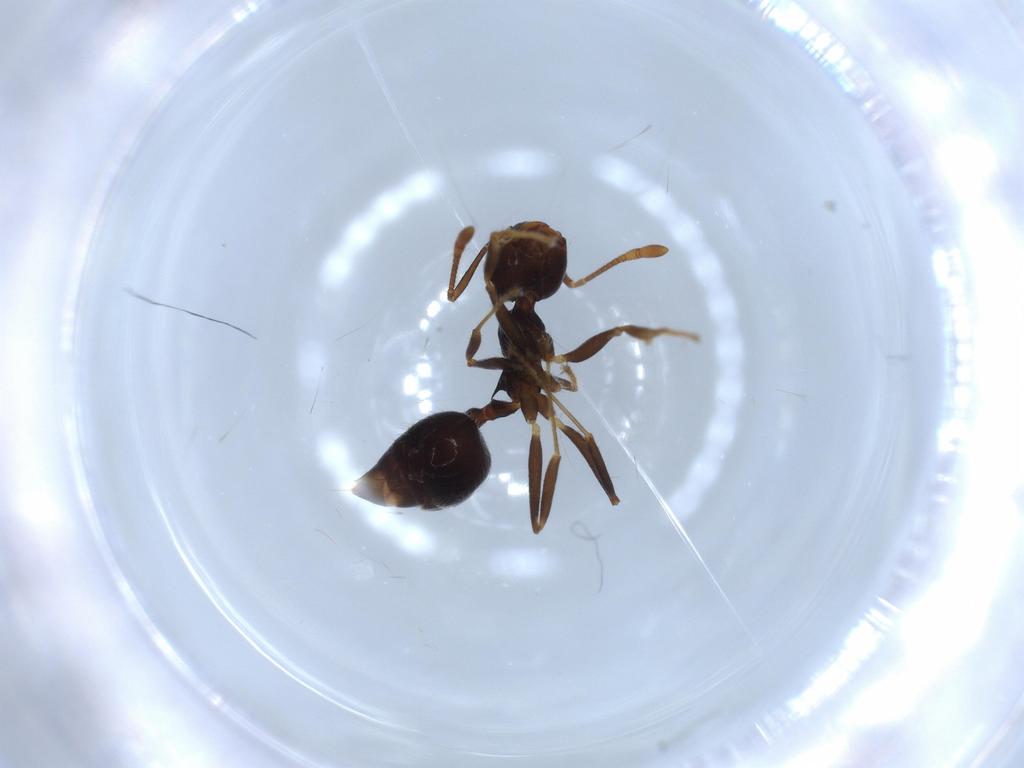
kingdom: Animalia
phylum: Arthropoda
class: Insecta
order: Hymenoptera
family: Formicidae
